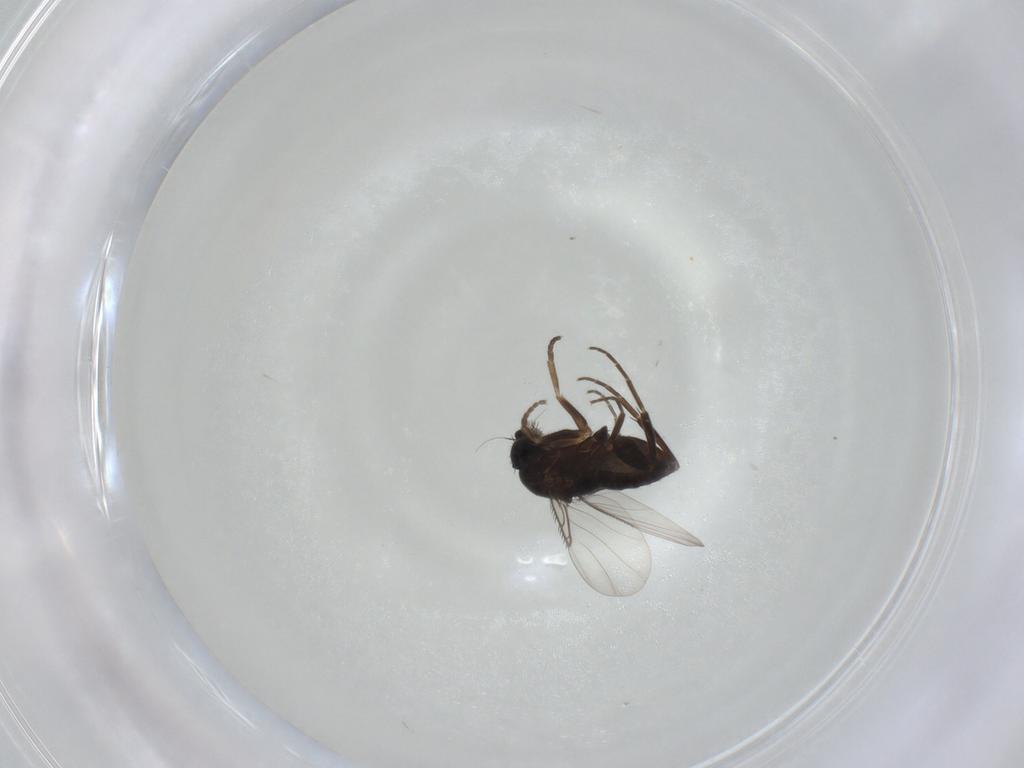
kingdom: Animalia
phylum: Arthropoda
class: Insecta
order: Diptera
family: Phoridae
